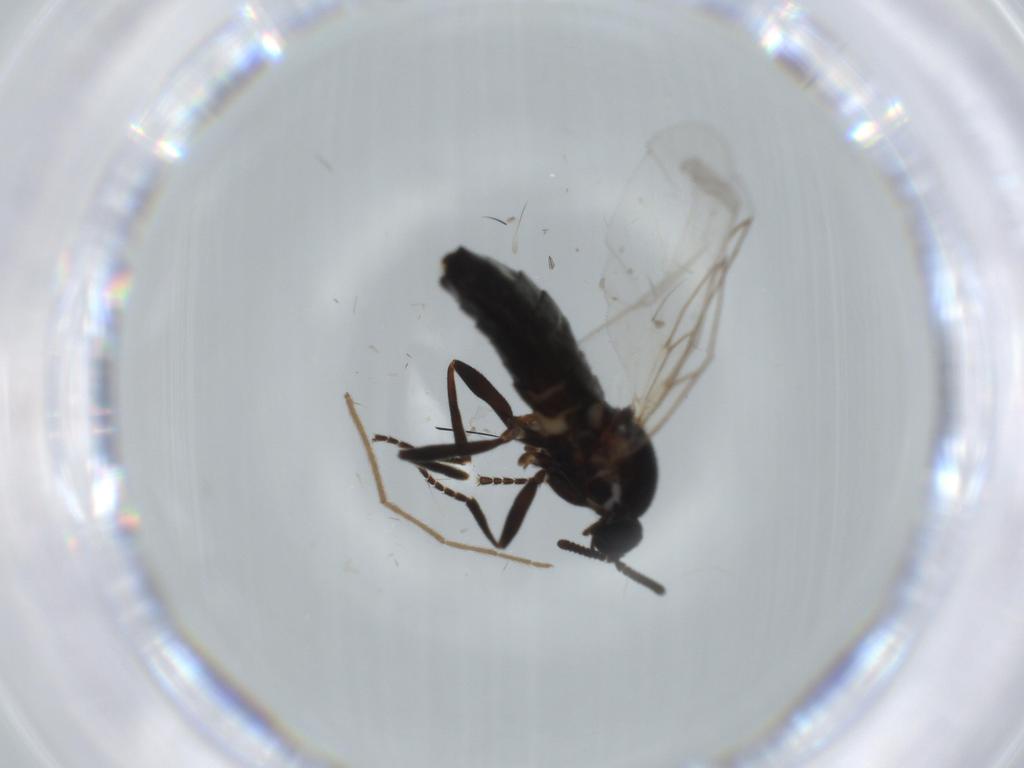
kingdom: Animalia
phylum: Arthropoda
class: Insecta
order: Diptera
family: Scatopsidae
